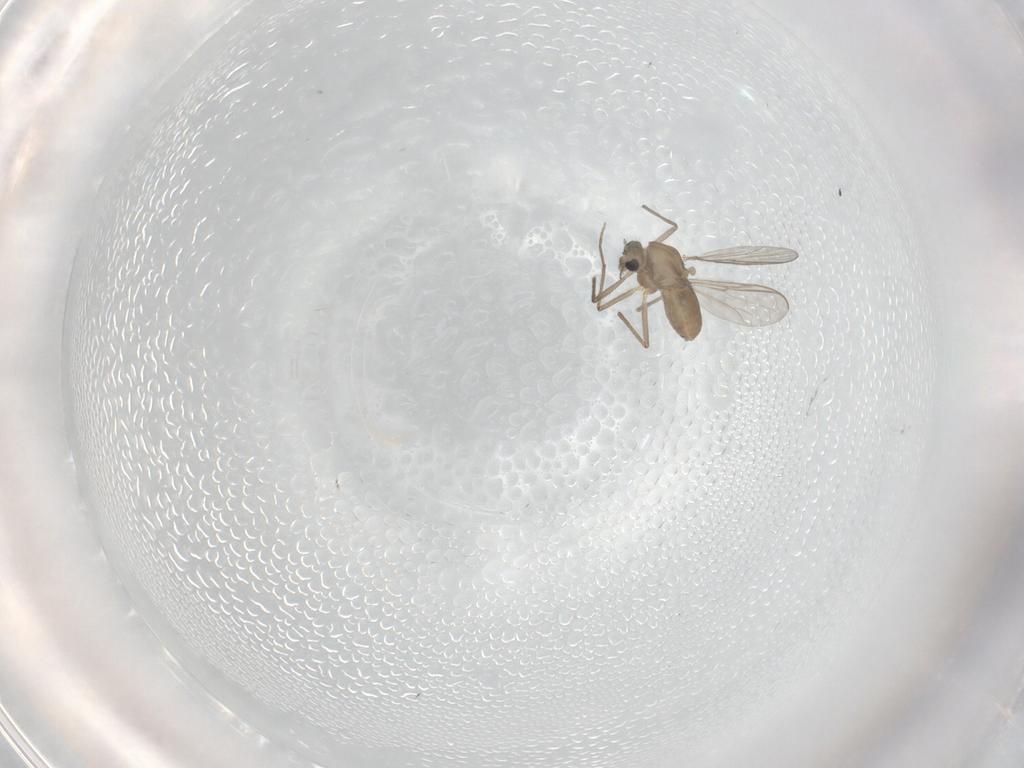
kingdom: Animalia
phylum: Arthropoda
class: Insecta
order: Diptera
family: Chironomidae
